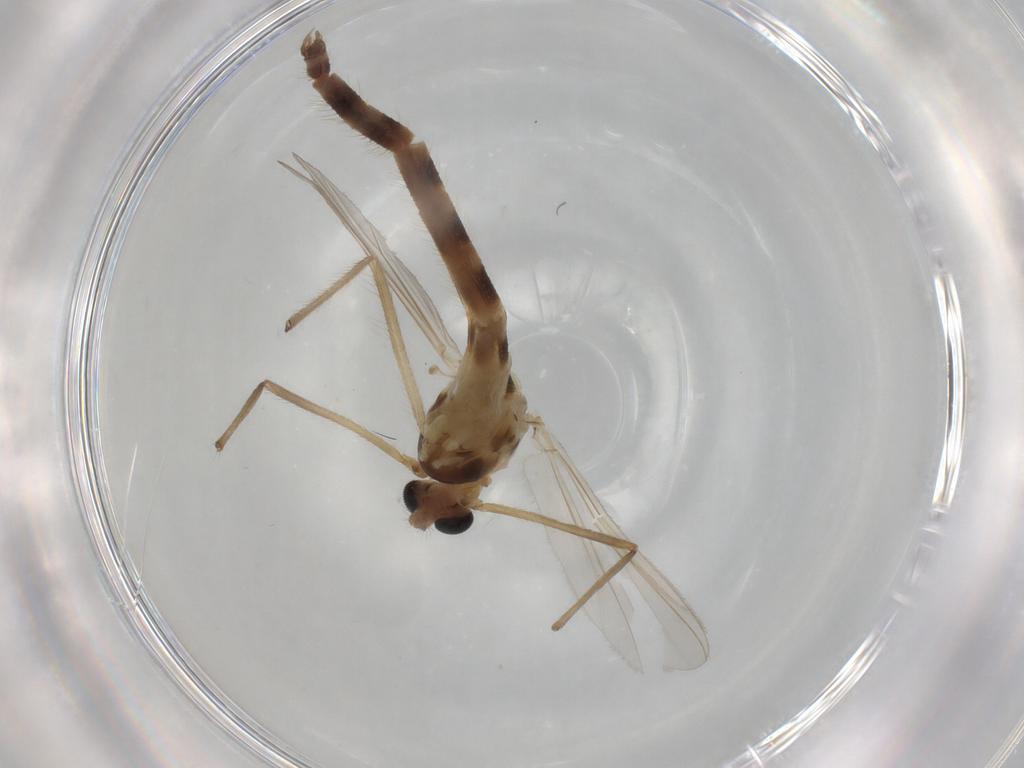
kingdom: Animalia
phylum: Arthropoda
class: Insecta
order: Diptera
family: Chironomidae
